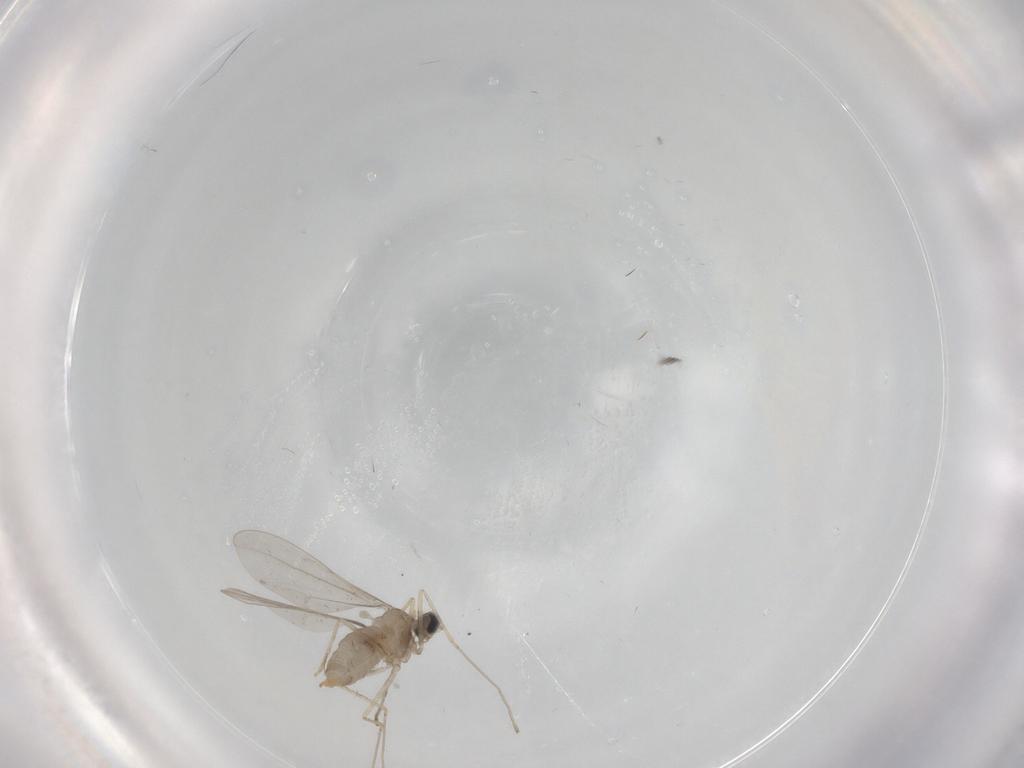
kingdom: Animalia
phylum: Arthropoda
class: Insecta
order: Diptera
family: Cecidomyiidae
